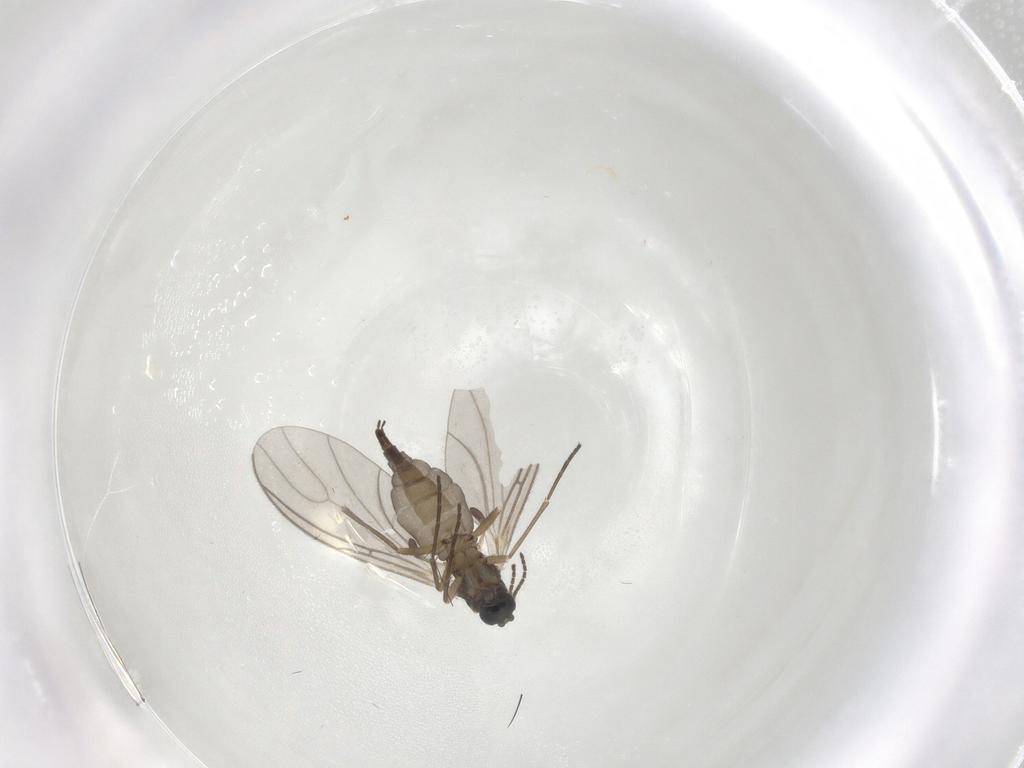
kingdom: Animalia
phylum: Arthropoda
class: Insecta
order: Diptera
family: Sciaridae
